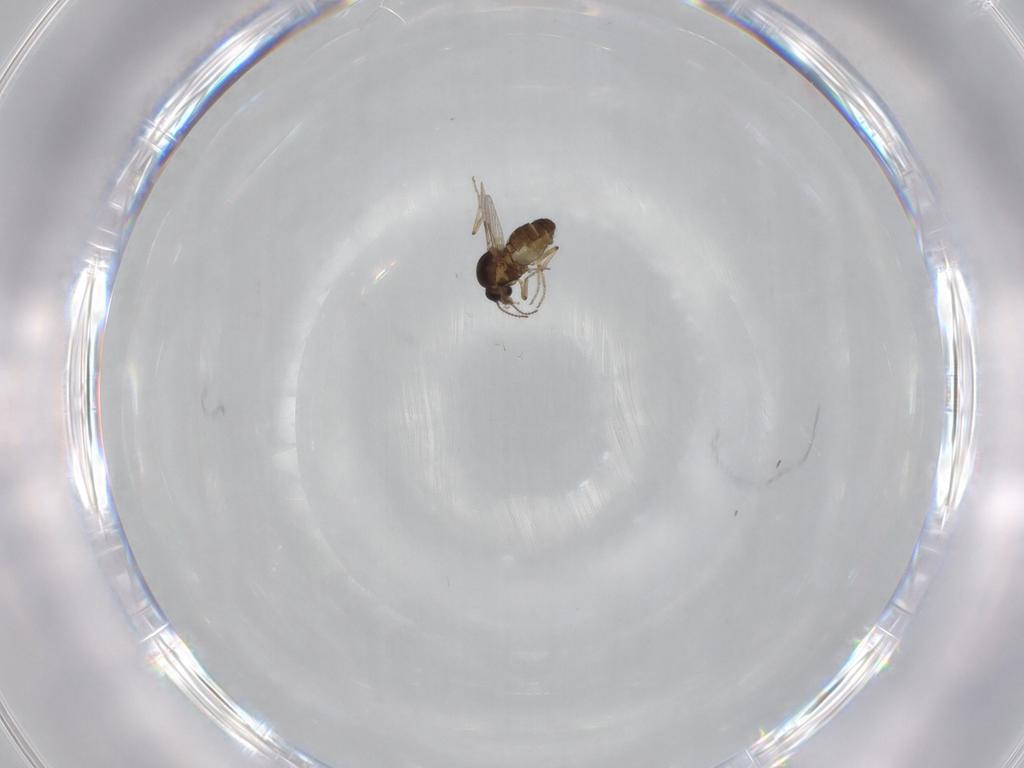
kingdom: Animalia
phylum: Arthropoda
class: Insecta
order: Diptera
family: Ceratopogonidae
